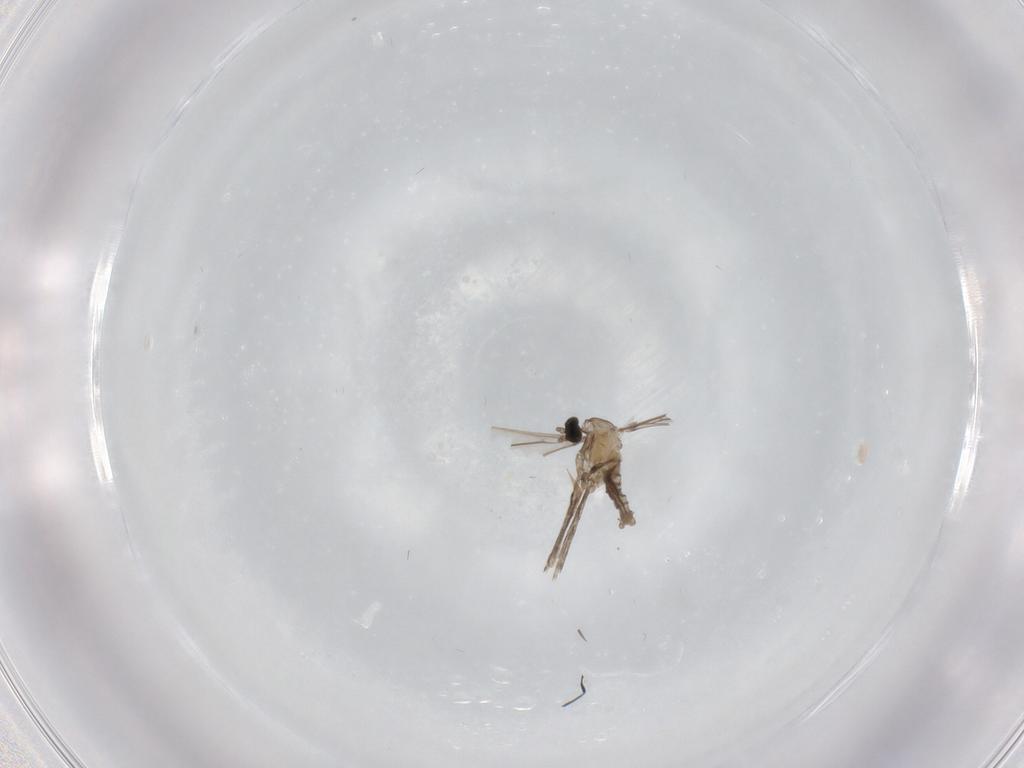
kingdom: Animalia
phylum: Arthropoda
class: Insecta
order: Diptera
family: Cecidomyiidae
